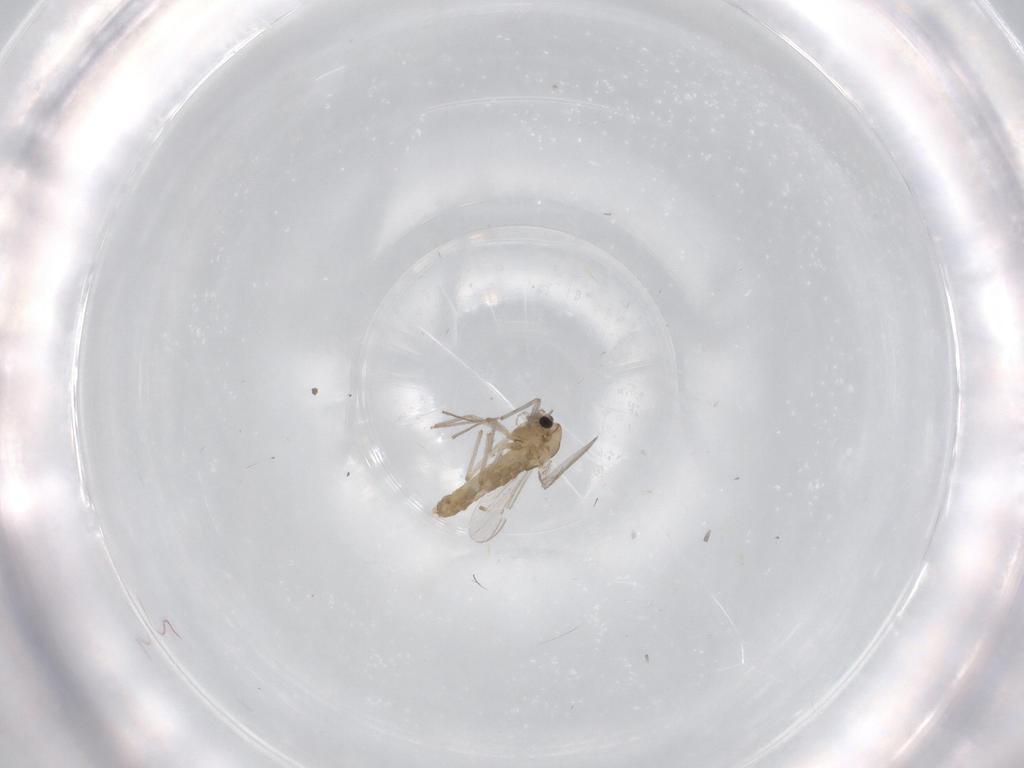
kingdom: Animalia
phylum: Arthropoda
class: Insecta
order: Diptera
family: Chironomidae
